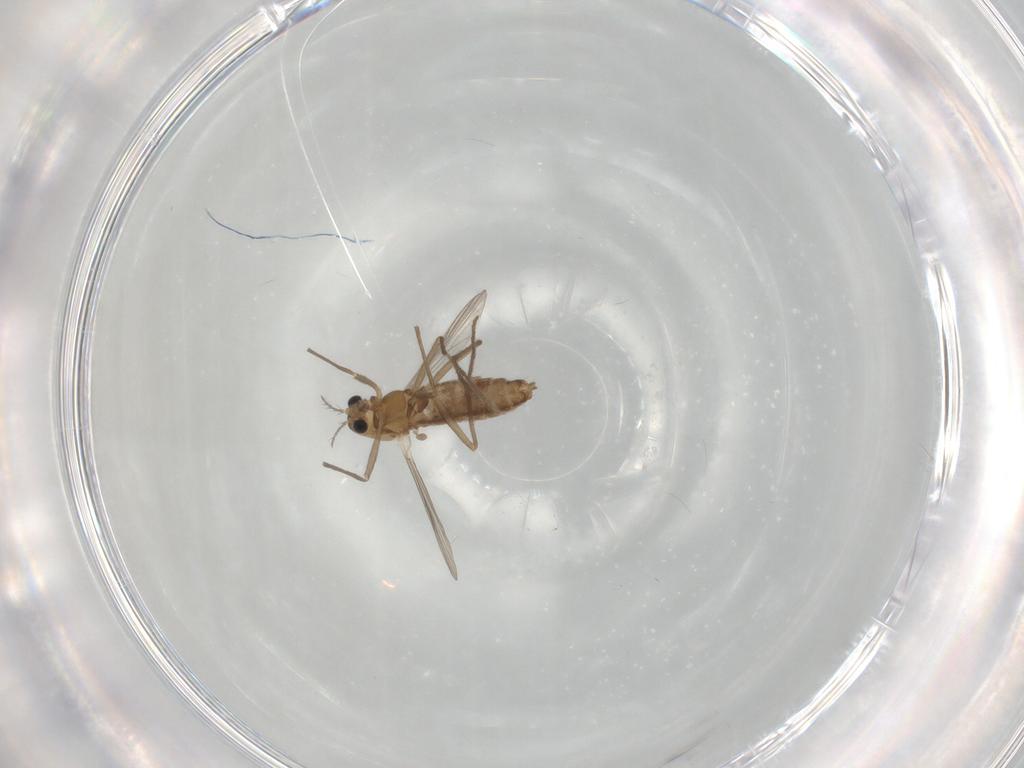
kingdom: Animalia
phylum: Arthropoda
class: Insecta
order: Diptera
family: Chironomidae
